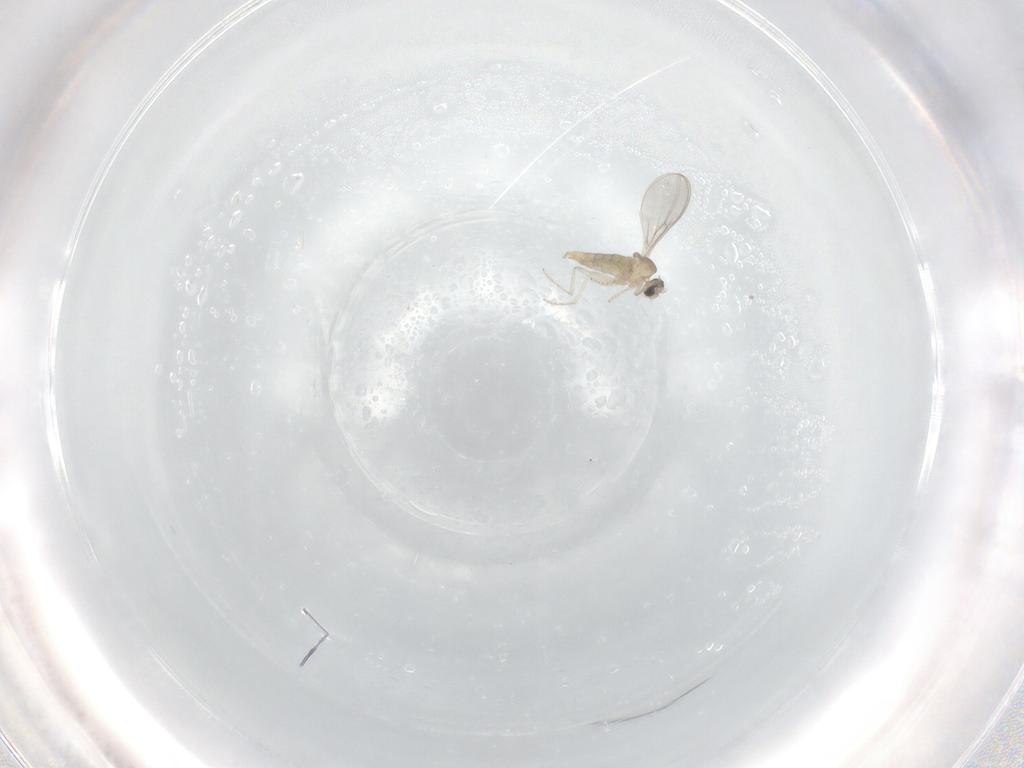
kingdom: Animalia
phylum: Arthropoda
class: Insecta
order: Diptera
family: Cecidomyiidae
